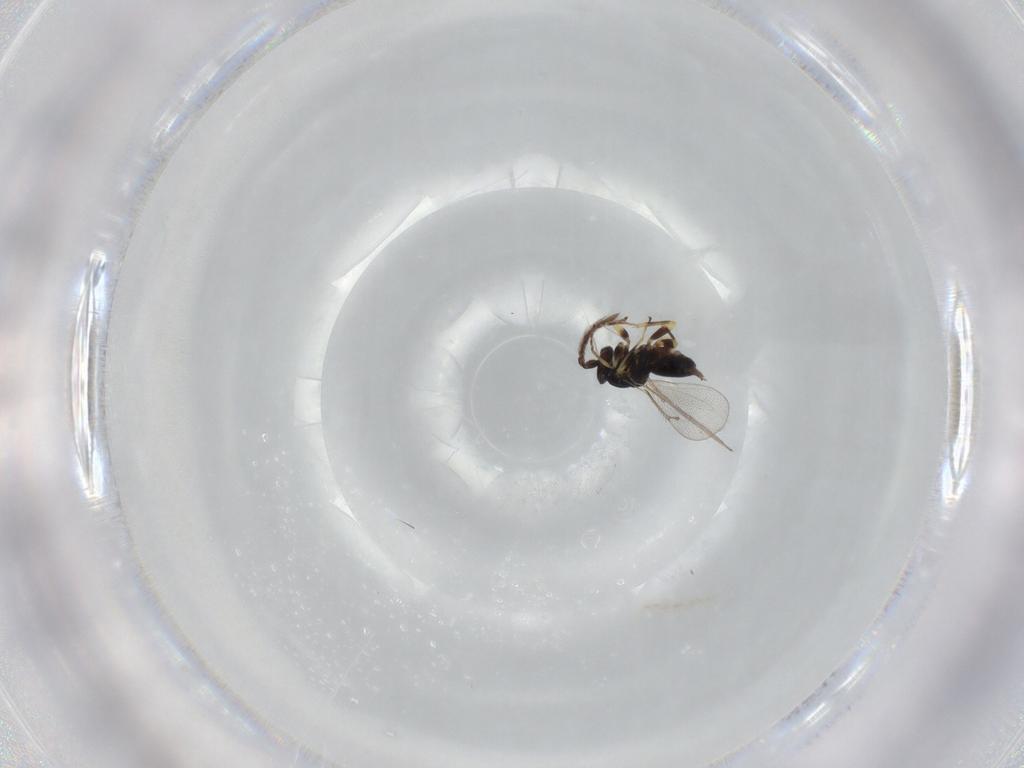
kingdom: Animalia
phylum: Arthropoda
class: Insecta
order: Hymenoptera
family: Eulophidae
